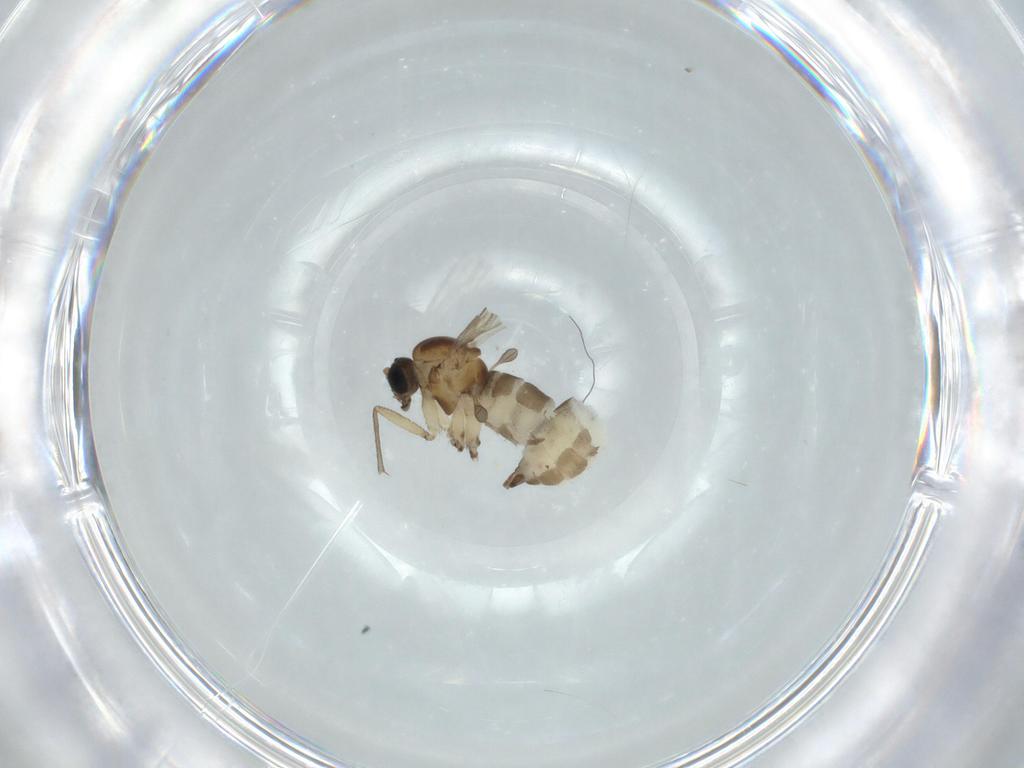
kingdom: Animalia
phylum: Arthropoda
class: Insecta
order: Diptera
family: Sciaridae
